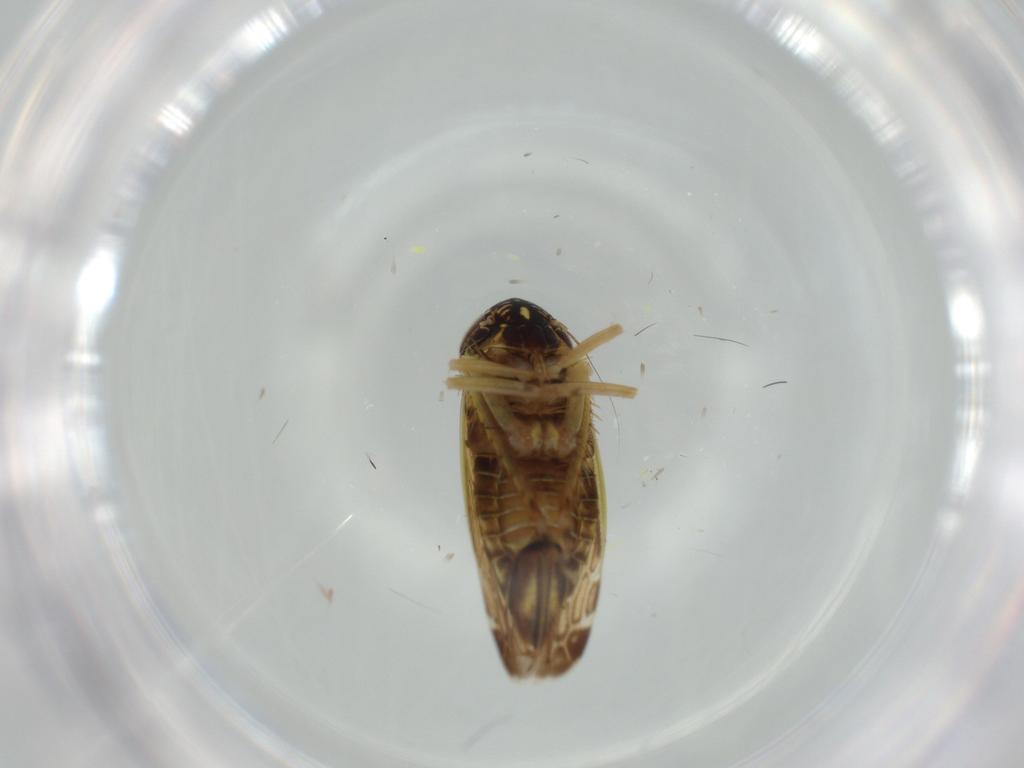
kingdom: Animalia
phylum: Arthropoda
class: Insecta
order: Hemiptera
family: Cicadellidae
